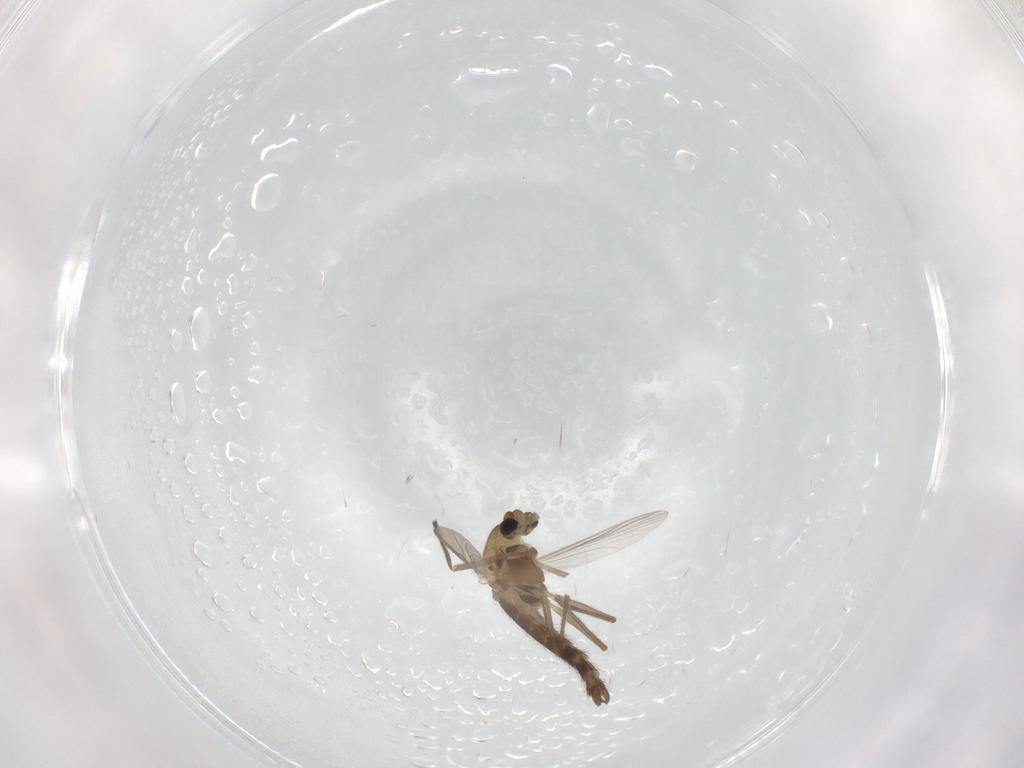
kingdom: Animalia
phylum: Arthropoda
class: Insecta
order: Diptera
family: Chironomidae
